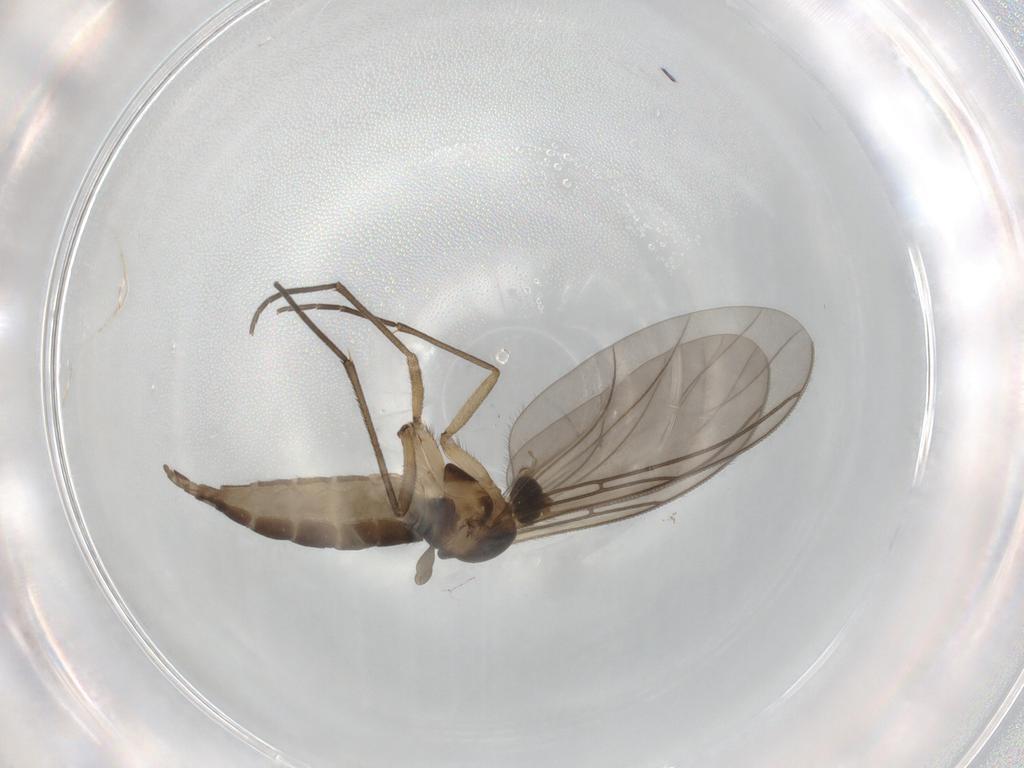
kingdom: Animalia
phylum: Arthropoda
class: Insecta
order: Diptera
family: Sciaridae
